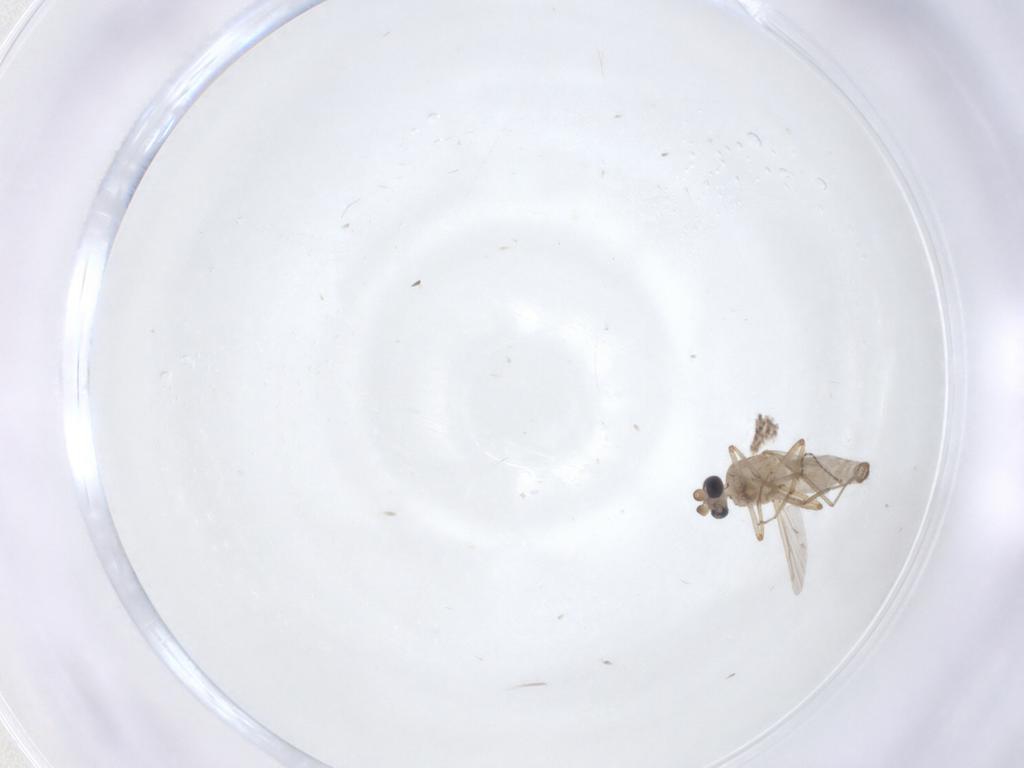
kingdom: Animalia
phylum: Arthropoda
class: Insecta
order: Diptera
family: Ceratopogonidae
